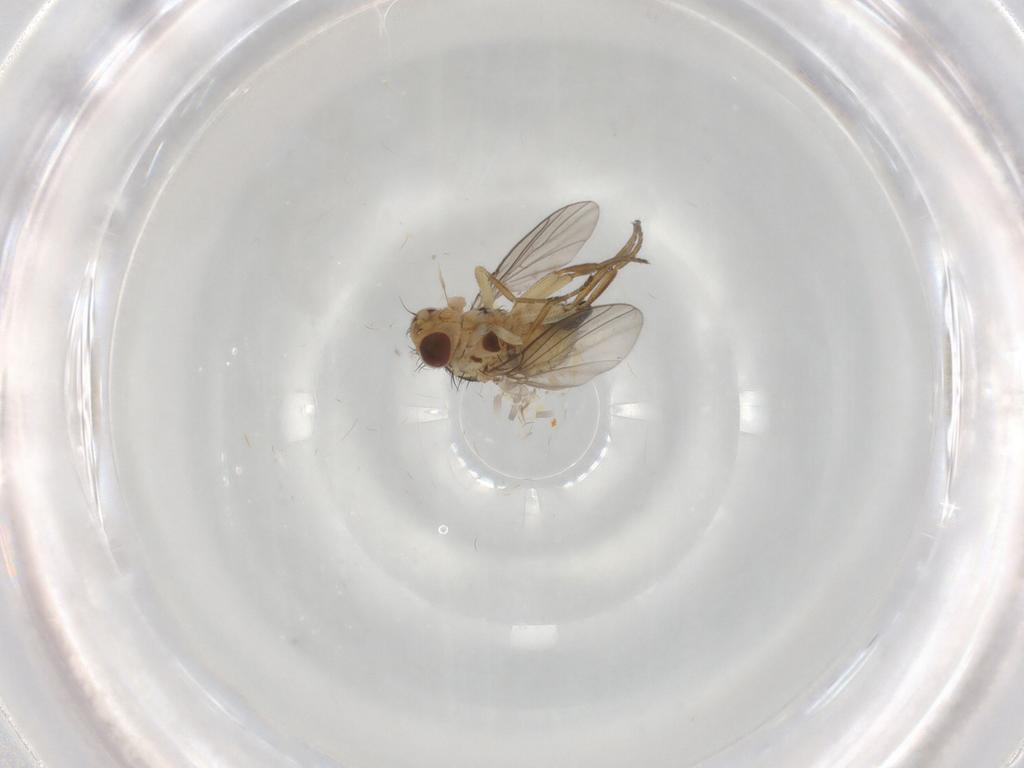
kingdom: Animalia
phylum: Arthropoda
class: Insecta
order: Diptera
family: Agromyzidae
